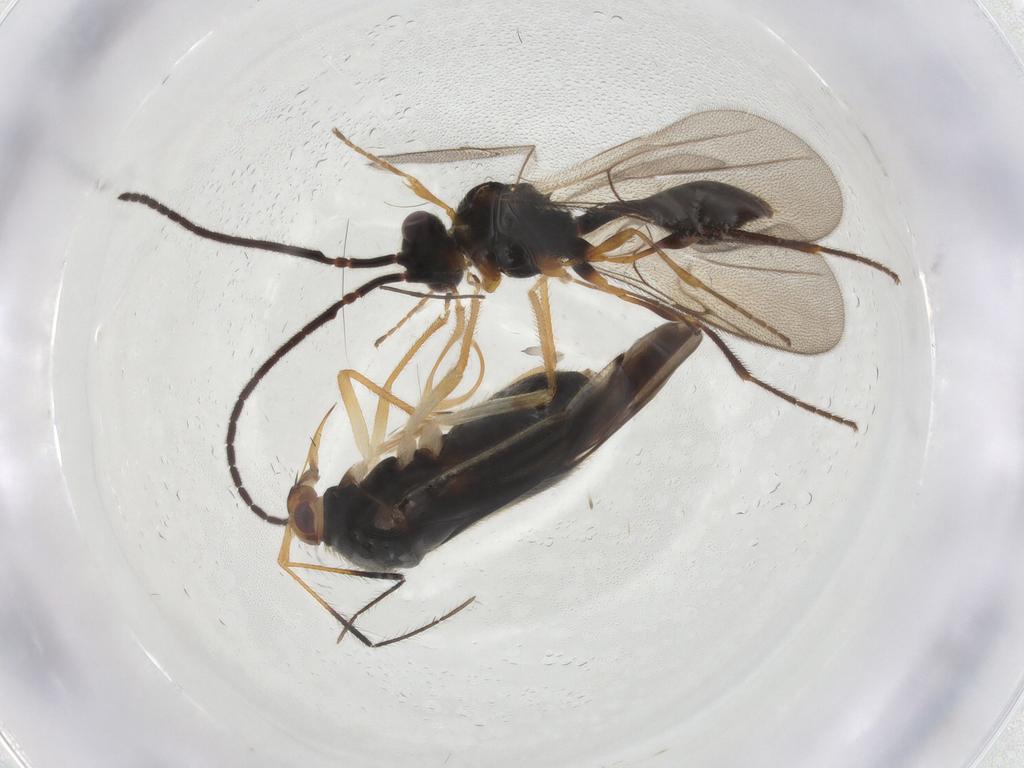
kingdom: Animalia
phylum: Arthropoda
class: Insecta
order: Hemiptera
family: Miridae
